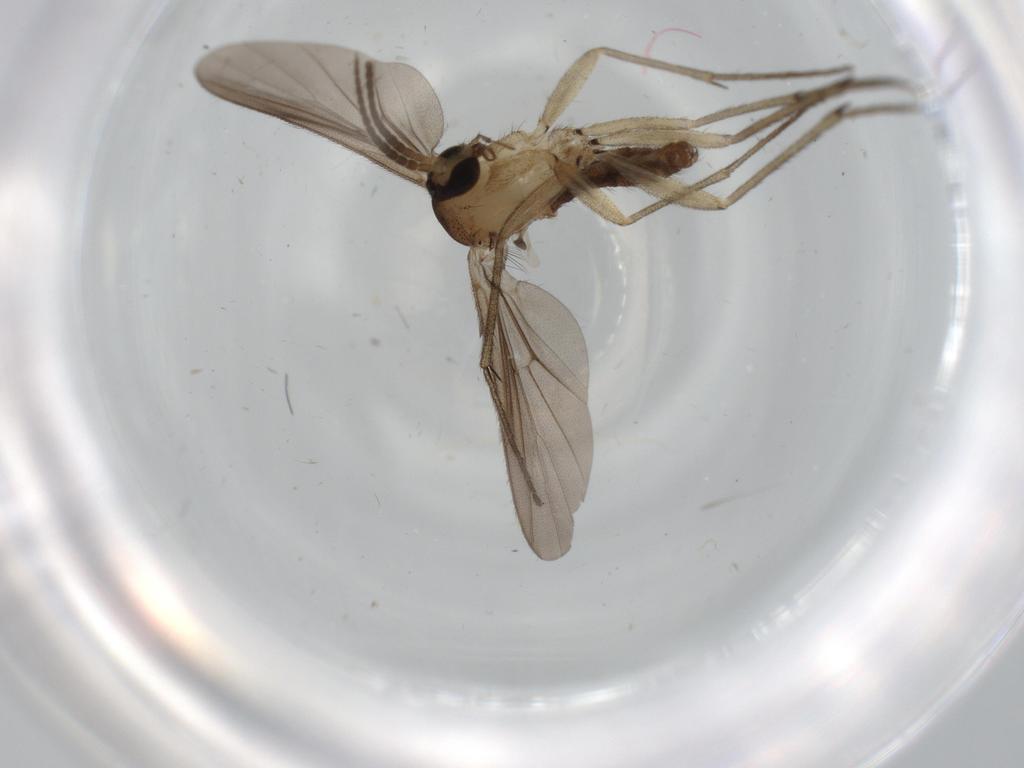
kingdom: Animalia
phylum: Arthropoda
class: Insecta
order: Diptera
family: Diadocidiidae
